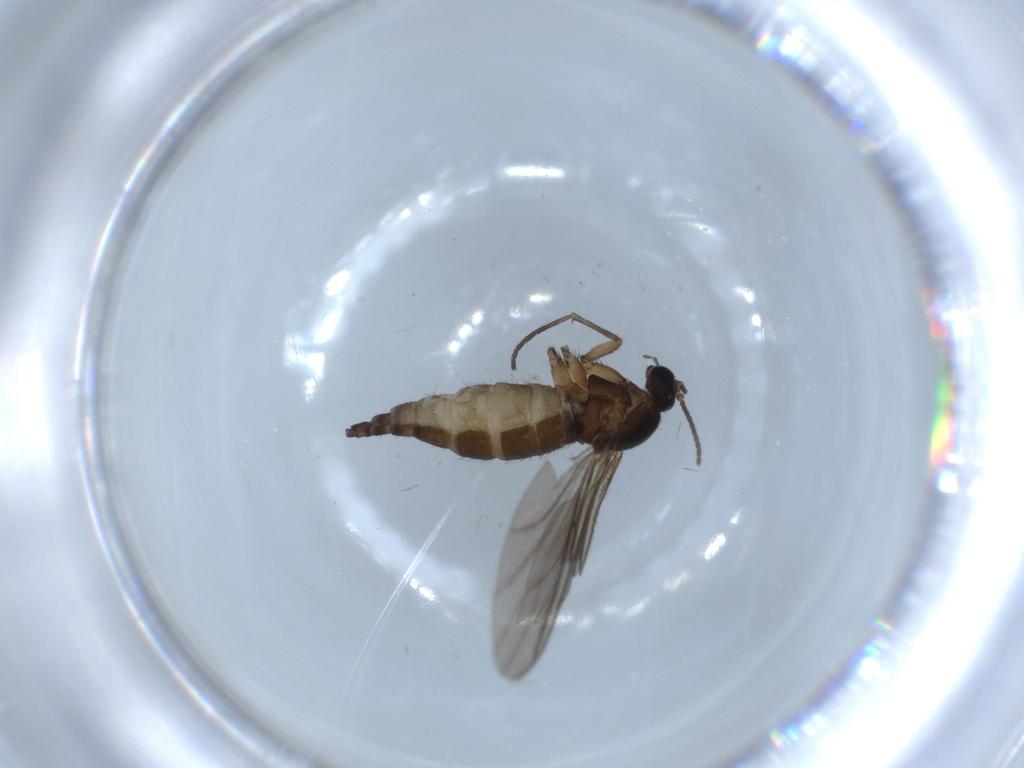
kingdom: Animalia
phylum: Arthropoda
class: Insecta
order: Diptera
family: Sciaridae
